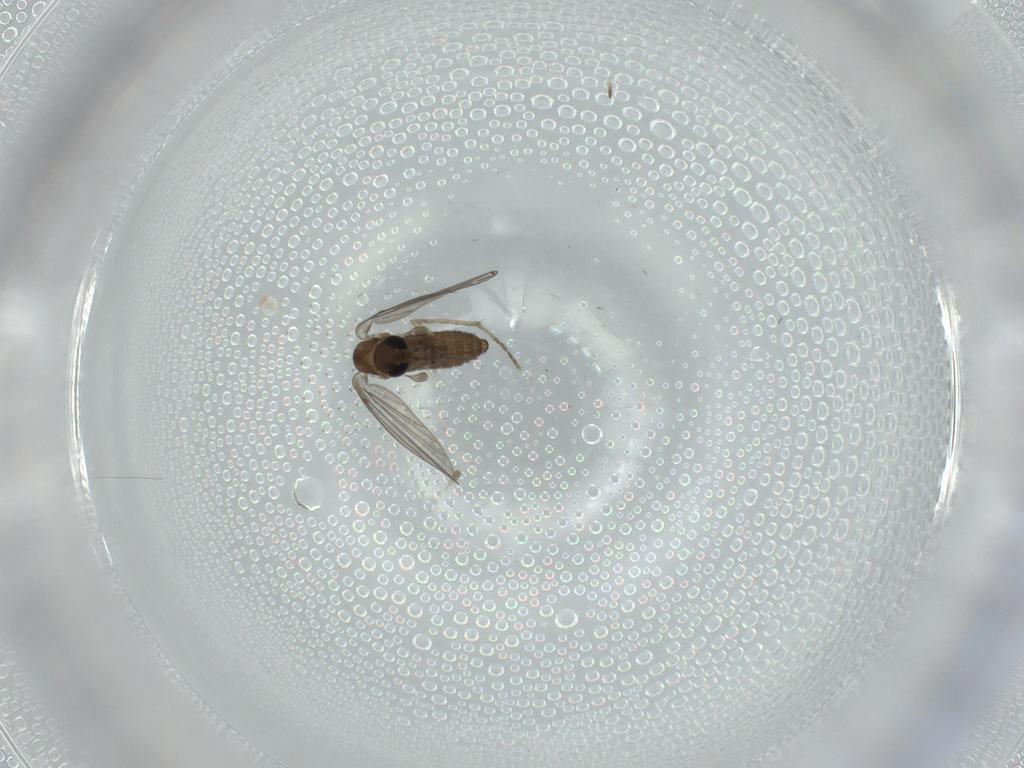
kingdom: Animalia
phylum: Arthropoda
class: Insecta
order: Diptera
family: Psychodidae
